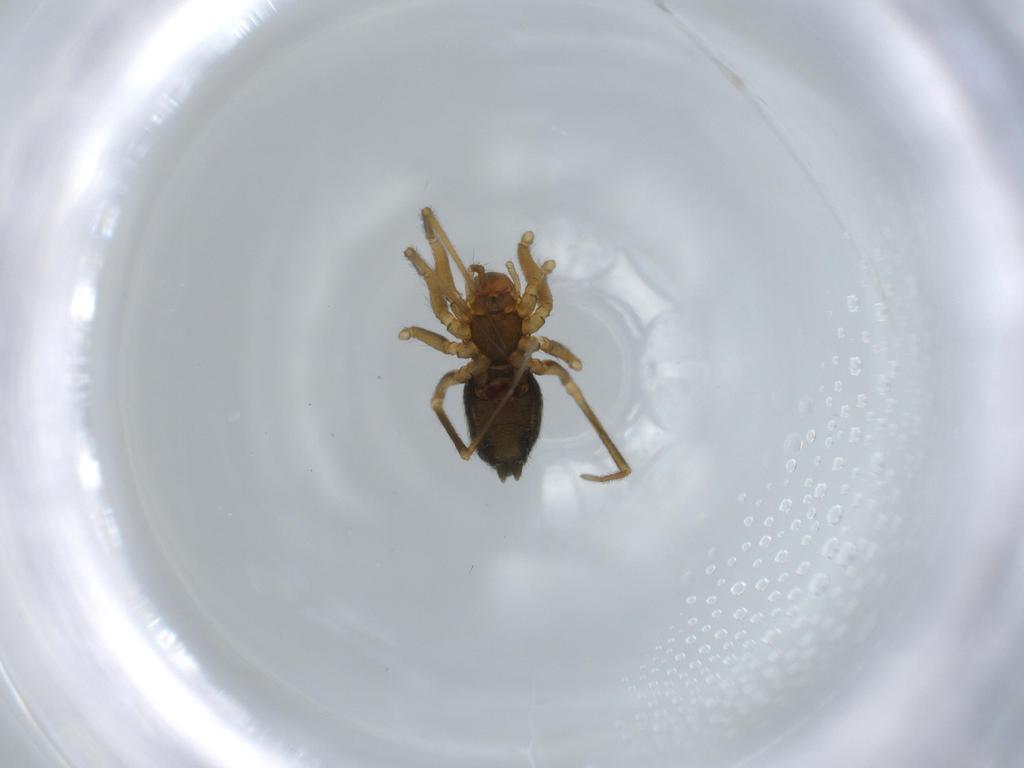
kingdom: Animalia
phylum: Arthropoda
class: Arachnida
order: Araneae
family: Linyphiidae
